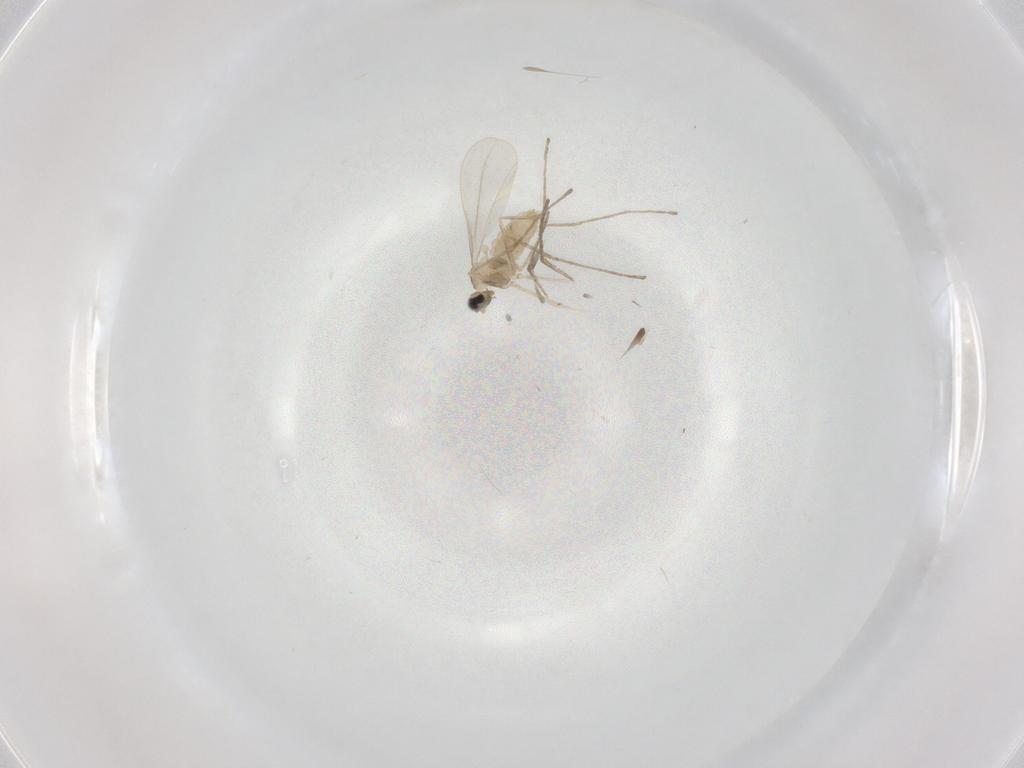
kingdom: Animalia
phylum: Arthropoda
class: Insecta
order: Diptera
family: Cecidomyiidae
